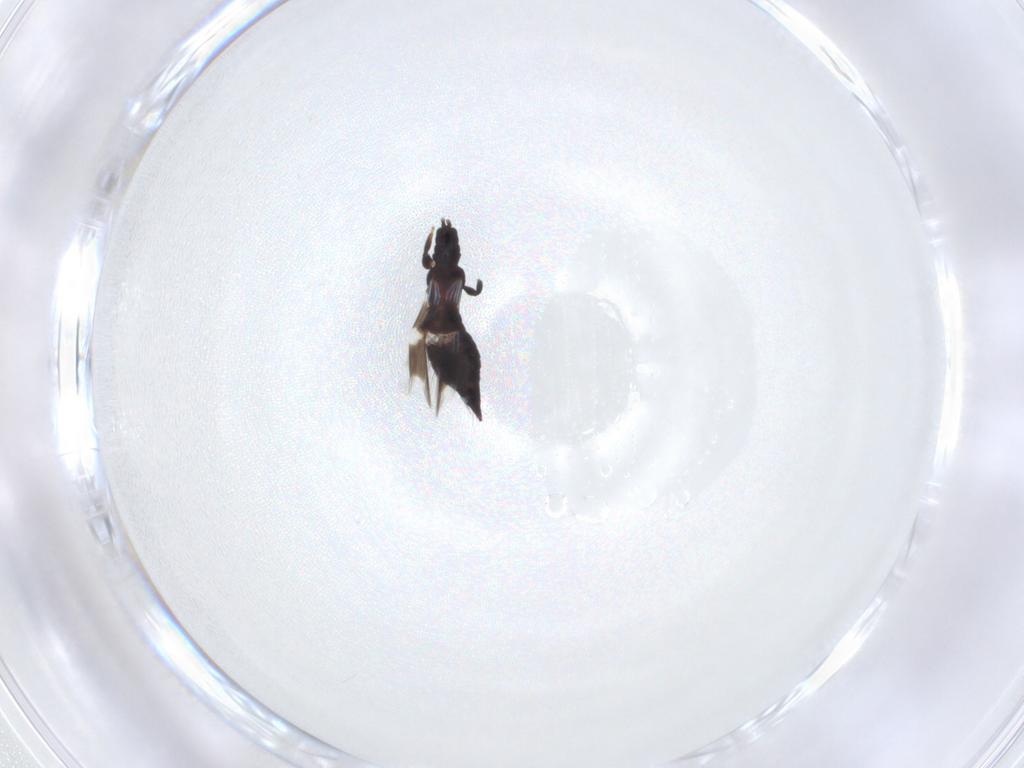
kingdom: Animalia
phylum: Arthropoda
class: Insecta
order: Thysanoptera
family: Aeolothripidae
